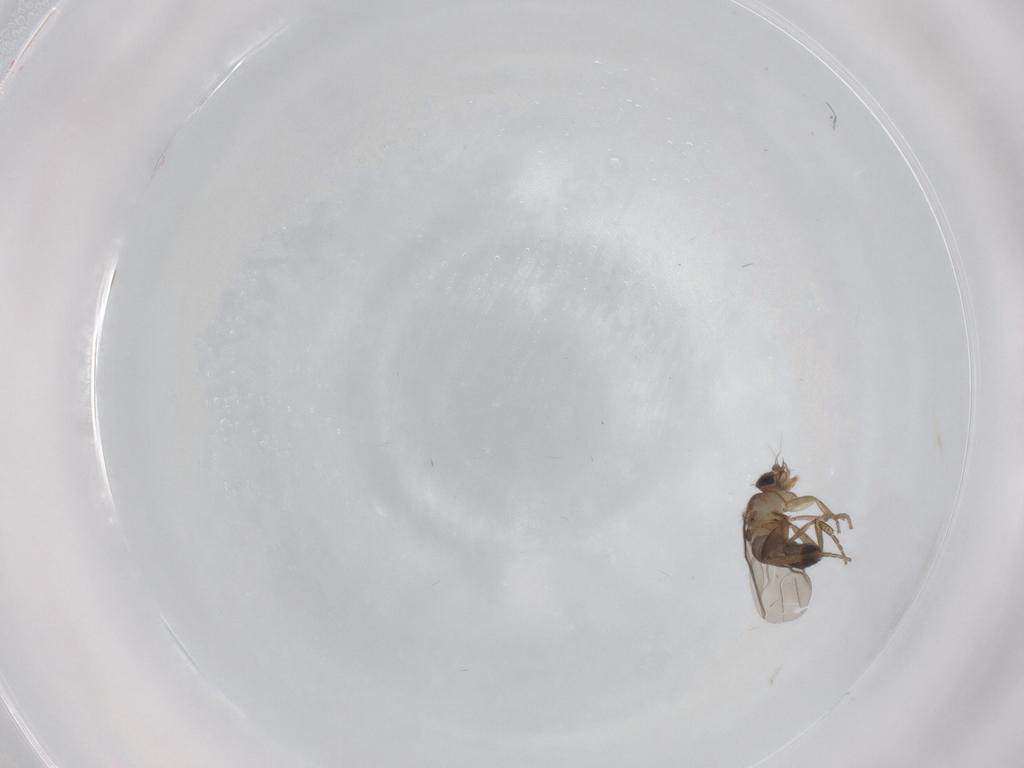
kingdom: Animalia
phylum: Arthropoda
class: Insecta
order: Diptera
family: Phoridae
